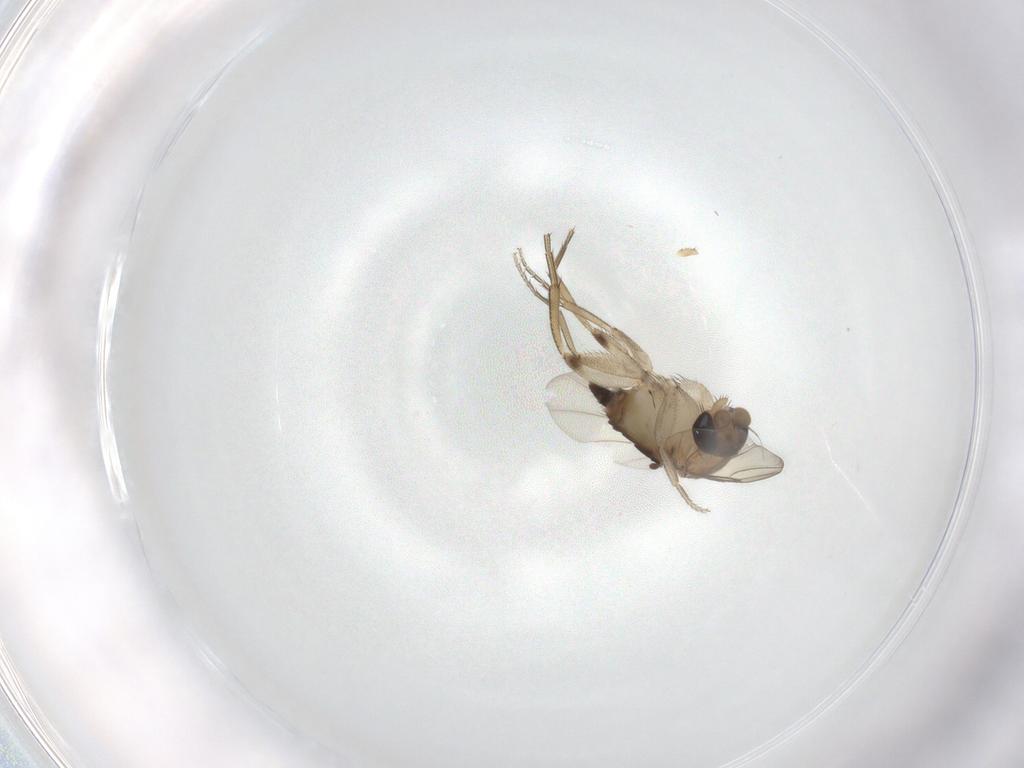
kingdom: Animalia
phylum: Arthropoda
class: Insecta
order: Diptera
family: Phoridae
